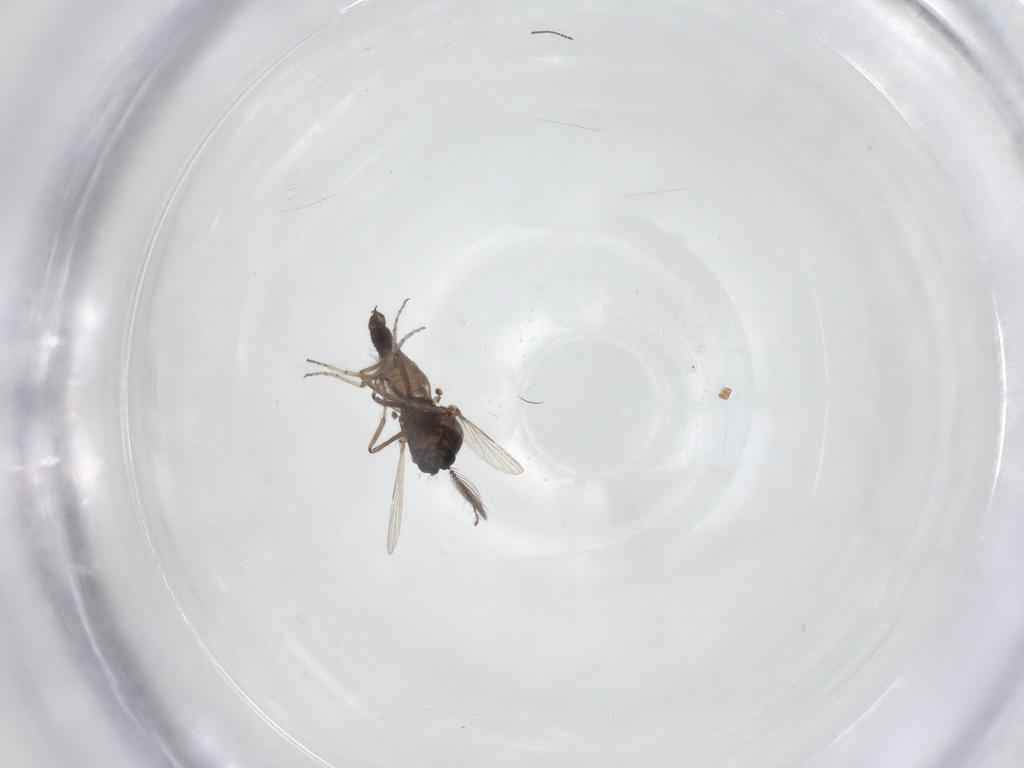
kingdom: Animalia
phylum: Arthropoda
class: Insecta
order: Diptera
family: Ceratopogonidae
